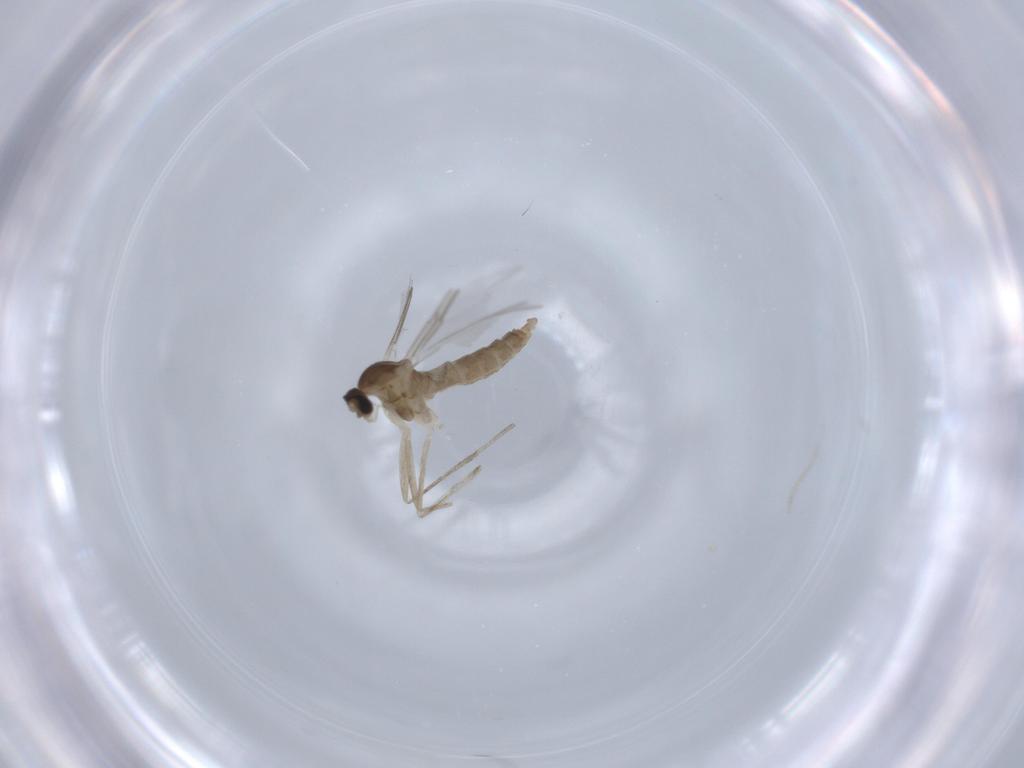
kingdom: Animalia
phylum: Arthropoda
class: Insecta
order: Diptera
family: Cecidomyiidae
